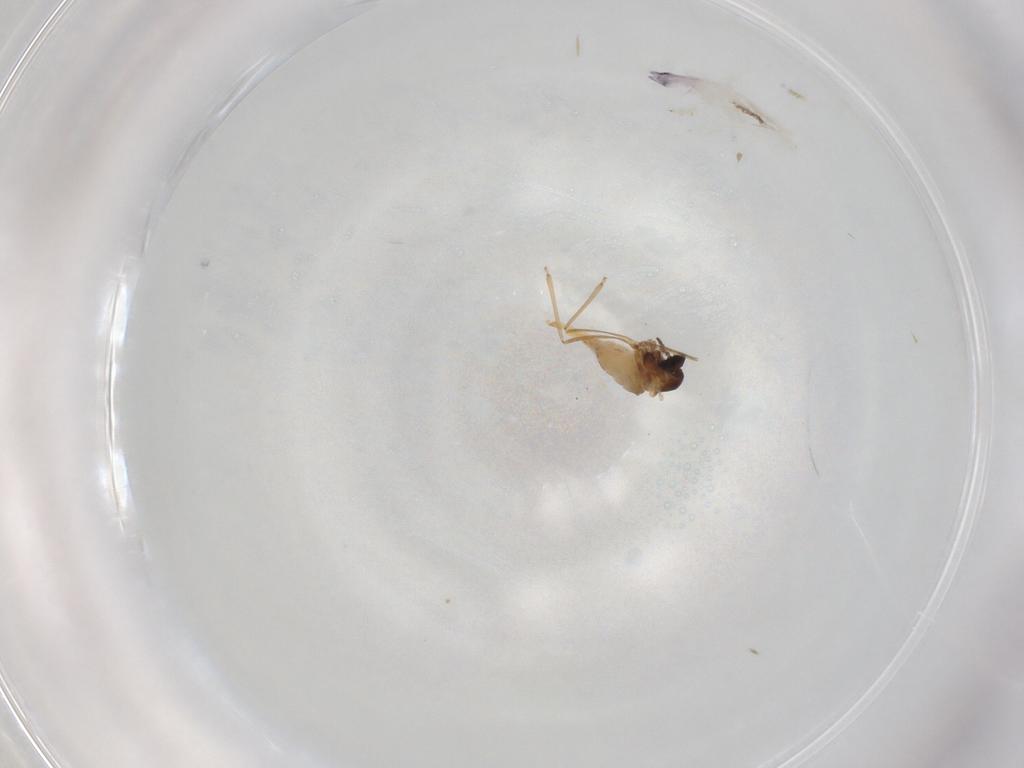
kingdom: Animalia
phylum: Arthropoda
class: Insecta
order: Diptera
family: Cecidomyiidae
